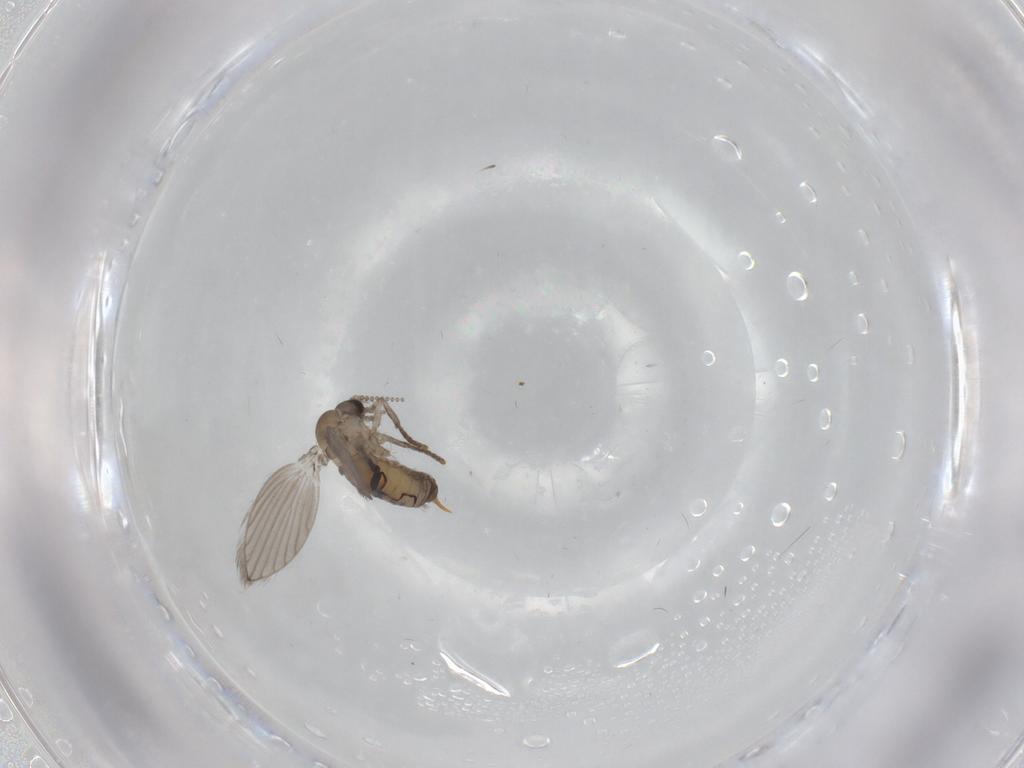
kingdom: Animalia
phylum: Arthropoda
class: Insecta
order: Diptera
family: Psychodidae
